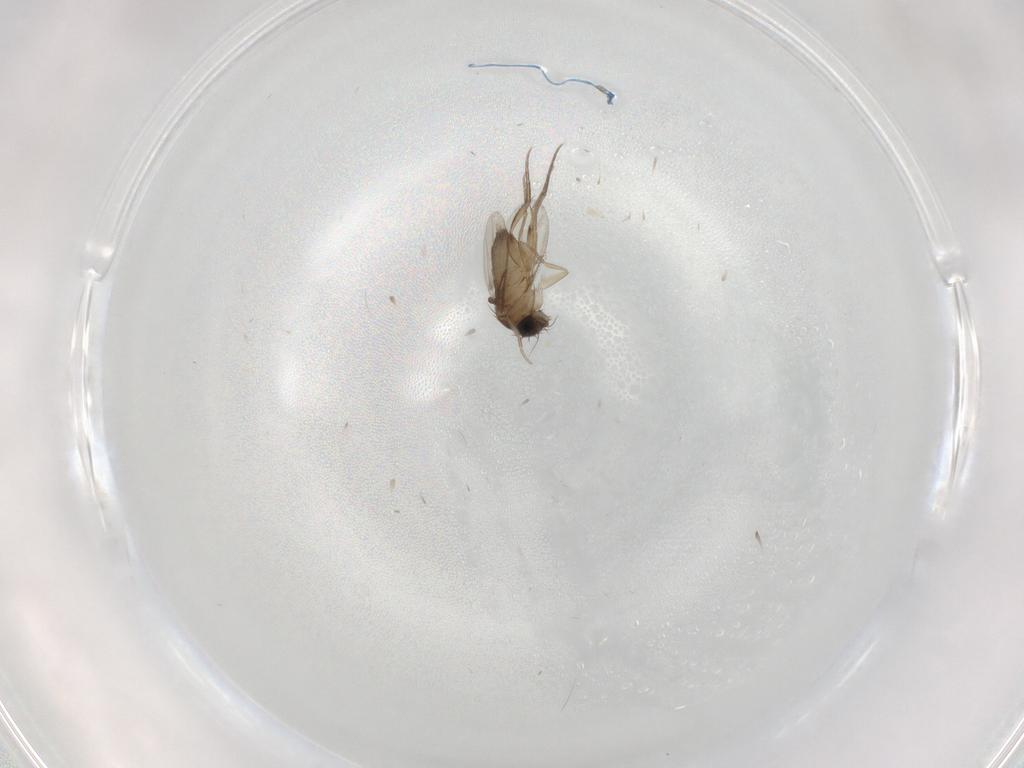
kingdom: Animalia
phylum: Arthropoda
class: Insecta
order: Diptera
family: Phoridae
